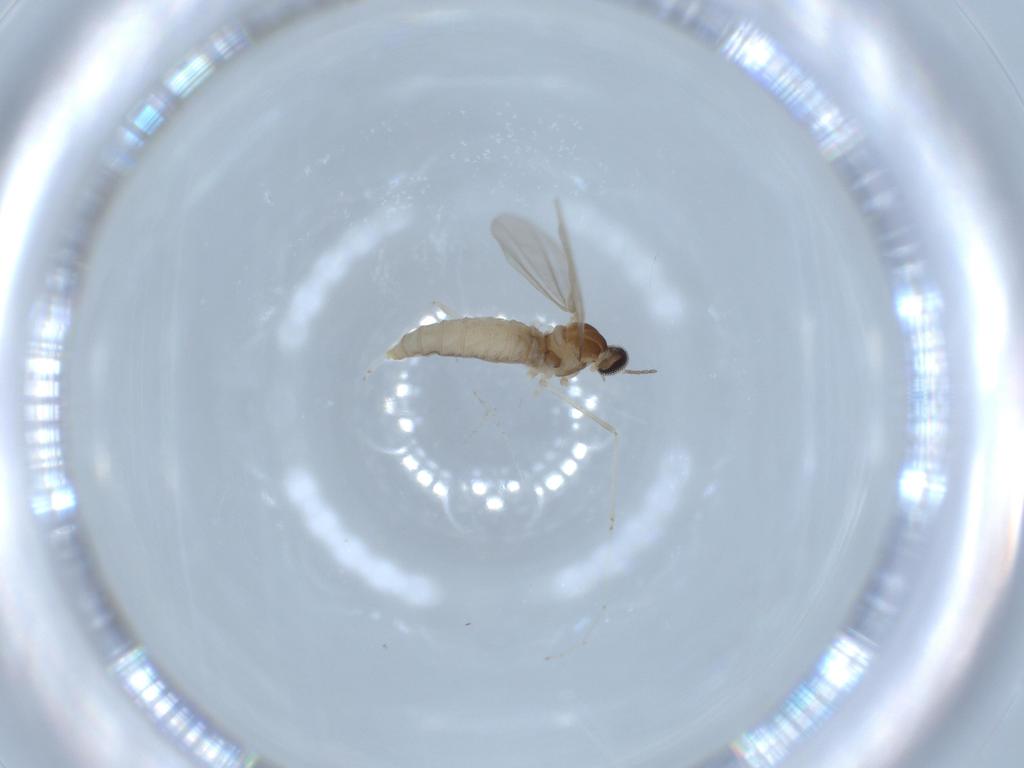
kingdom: Animalia
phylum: Arthropoda
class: Insecta
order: Diptera
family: Cecidomyiidae
